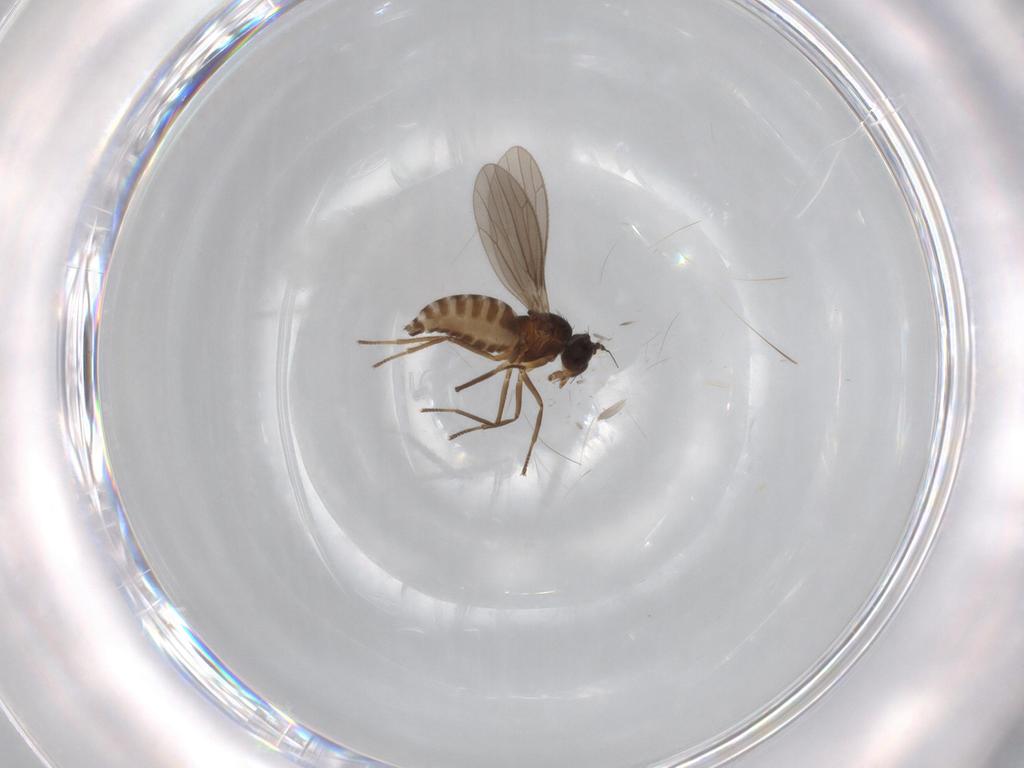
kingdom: Animalia
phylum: Arthropoda
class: Insecta
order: Diptera
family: Empididae
